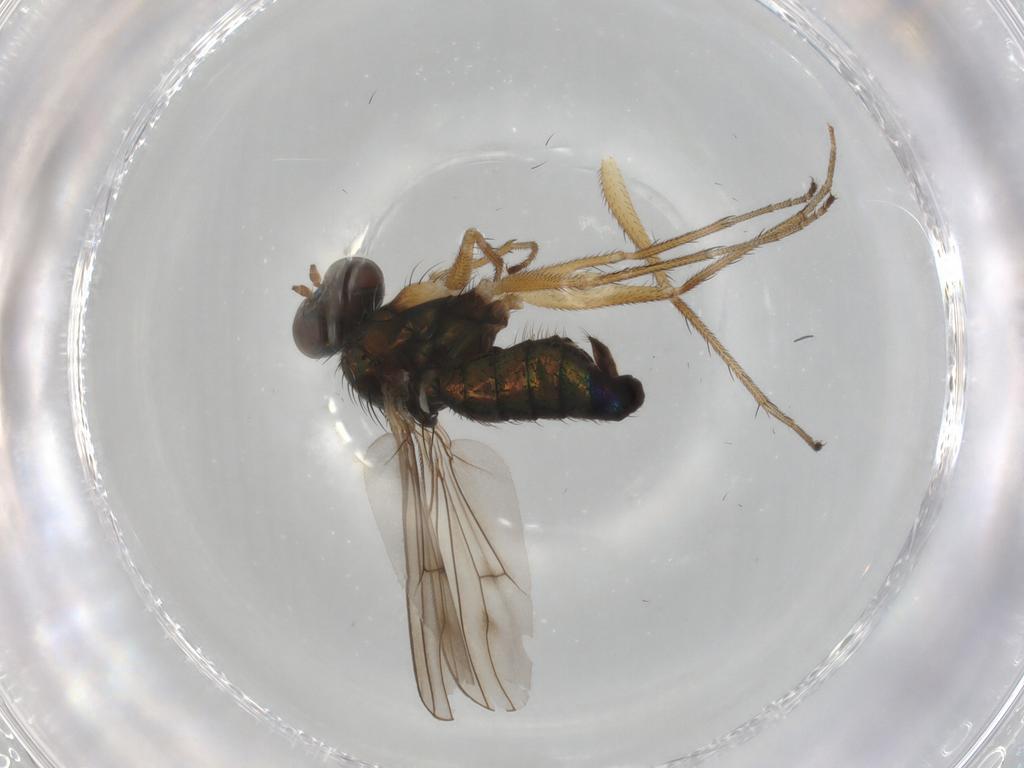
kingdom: Animalia
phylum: Arthropoda
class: Insecta
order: Diptera
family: Dolichopodidae
